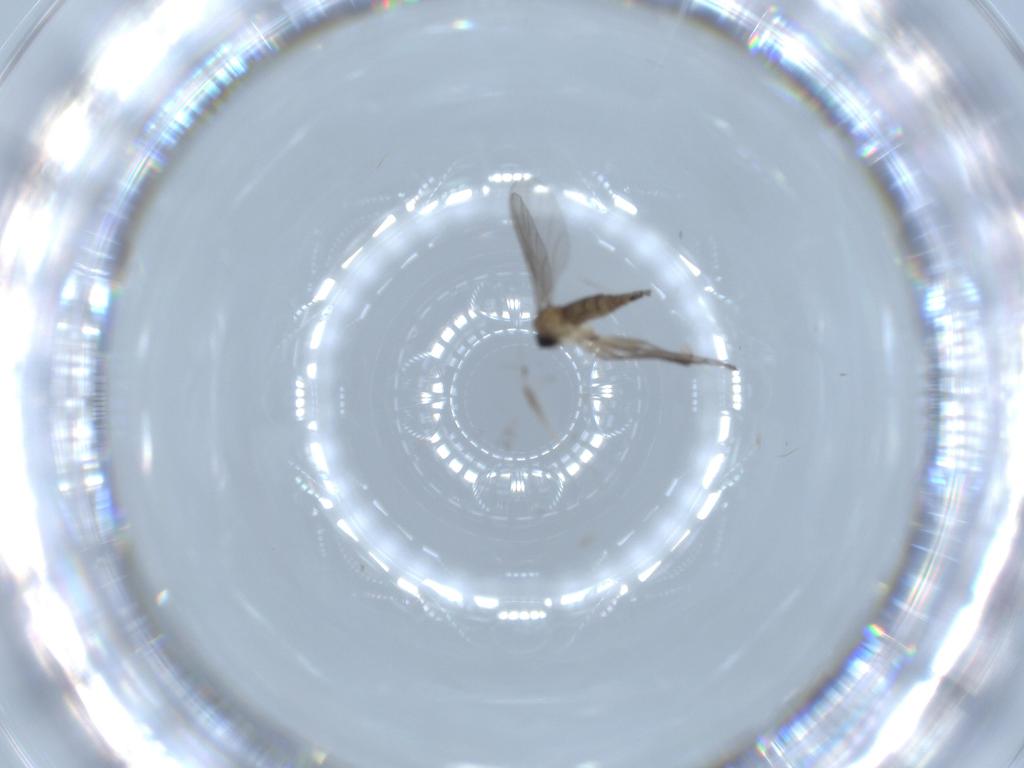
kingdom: Animalia
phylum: Arthropoda
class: Insecta
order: Diptera
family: Sciaridae
